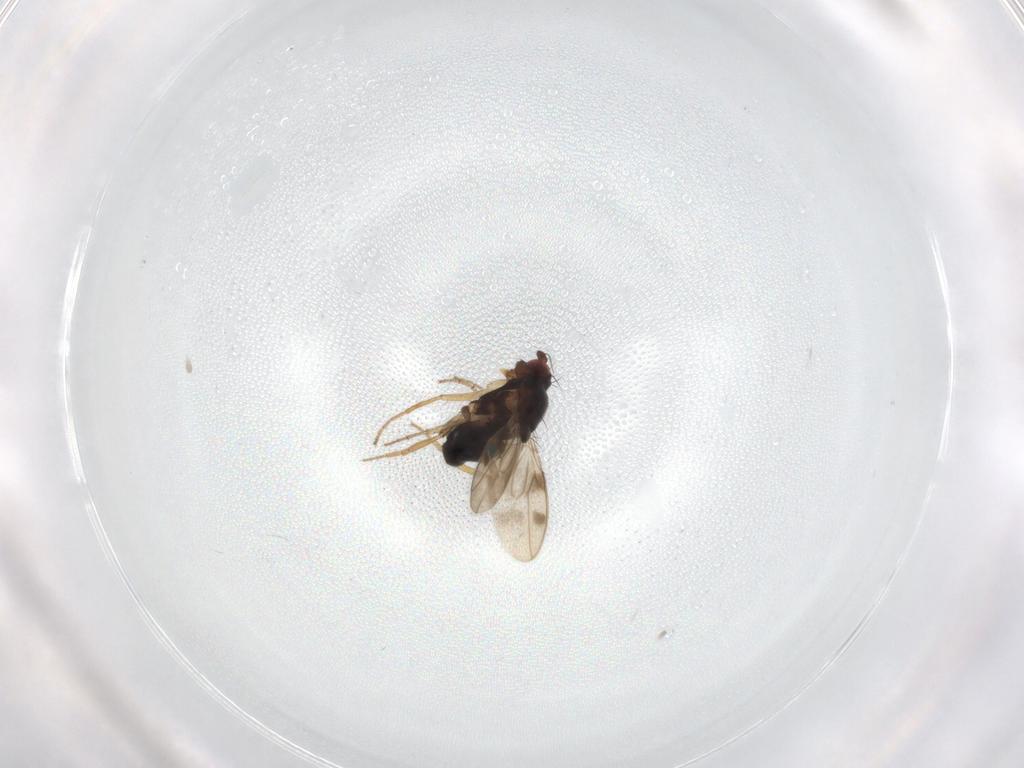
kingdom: Animalia
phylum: Arthropoda
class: Insecta
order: Diptera
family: Sphaeroceridae
